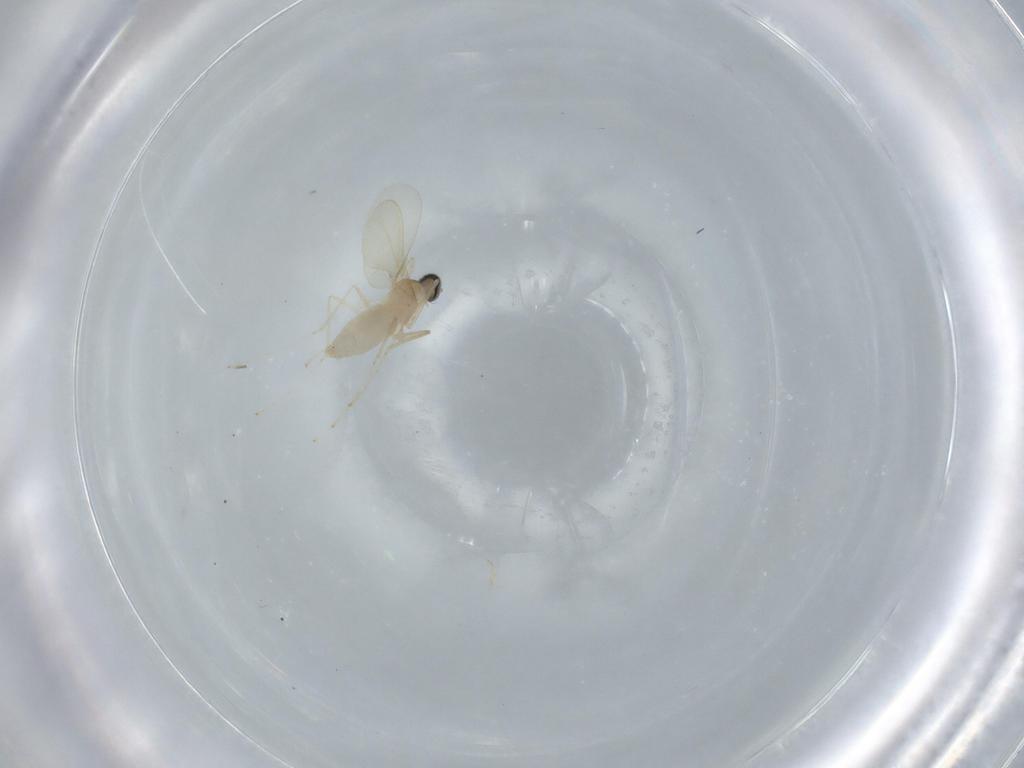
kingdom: Animalia
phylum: Arthropoda
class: Insecta
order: Diptera
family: Cecidomyiidae
